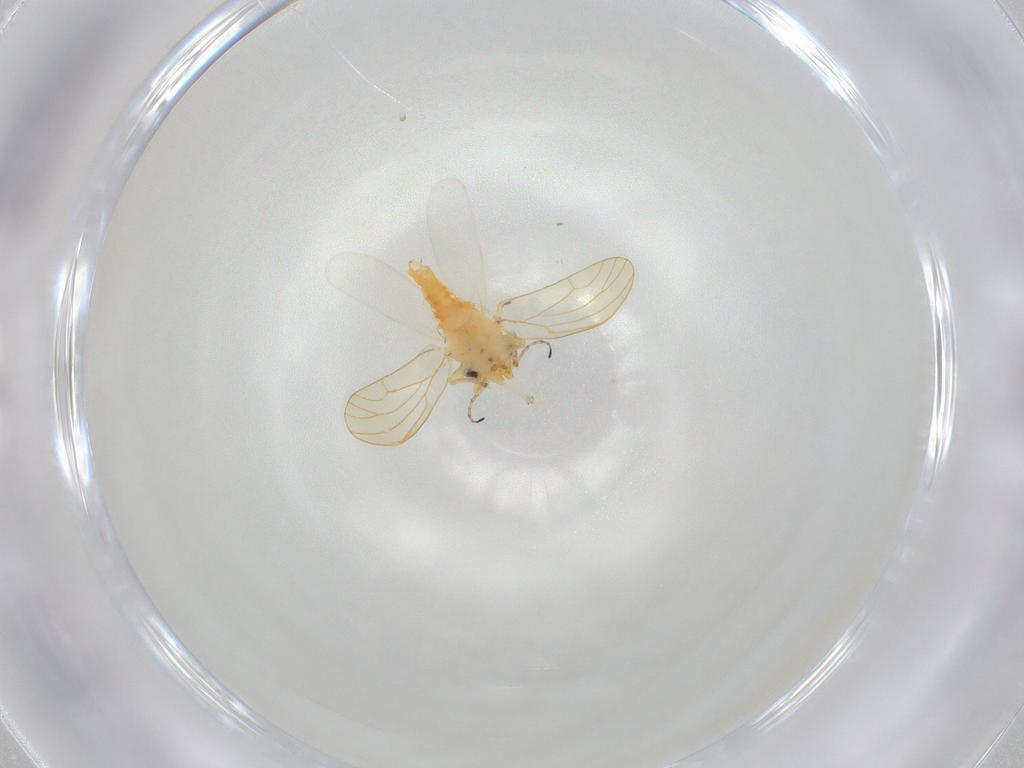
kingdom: Animalia
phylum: Arthropoda
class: Insecta
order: Hemiptera
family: Aphalaridae
